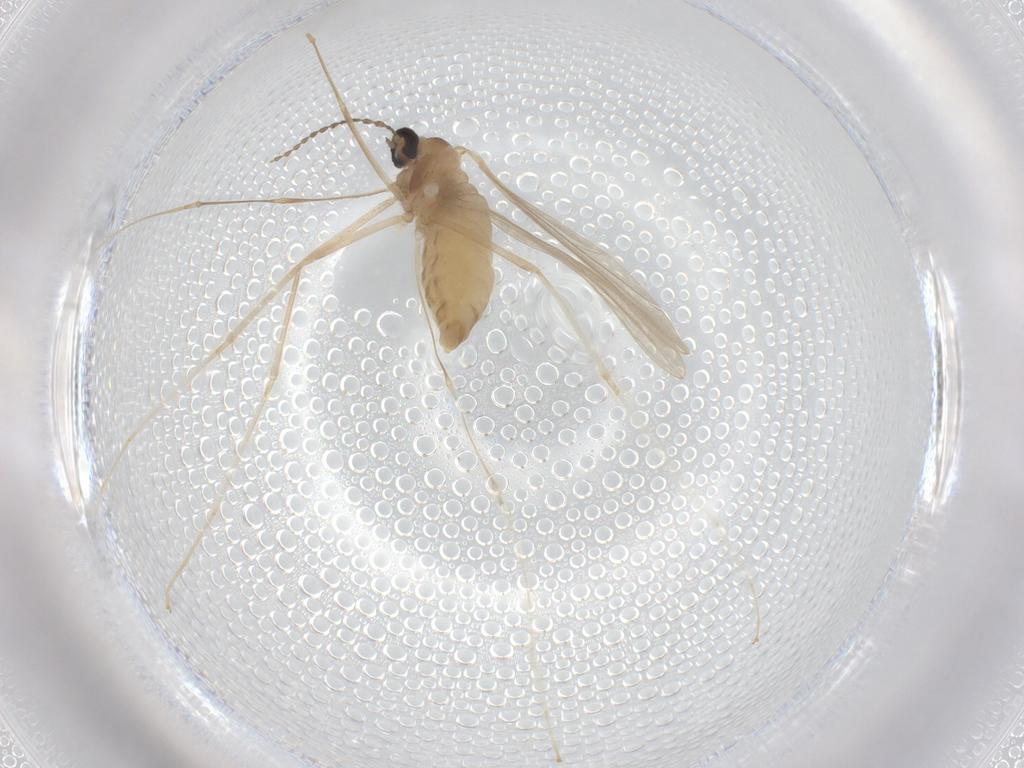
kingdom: Animalia
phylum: Arthropoda
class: Insecta
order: Diptera
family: Cecidomyiidae
